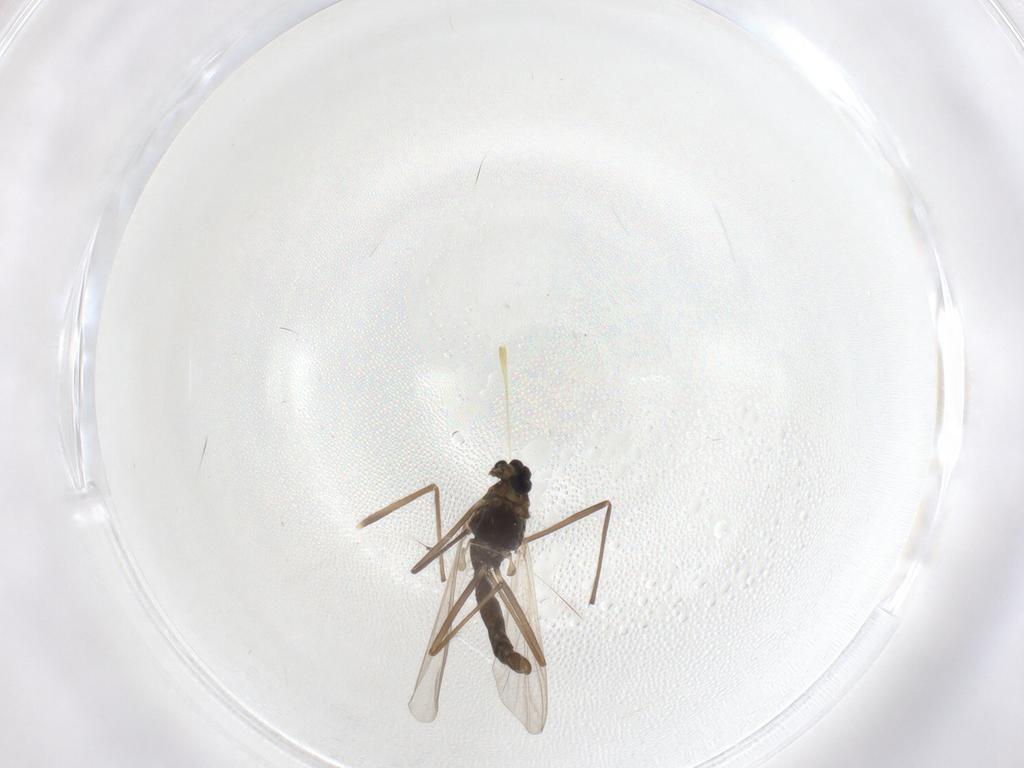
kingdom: Animalia
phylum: Arthropoda
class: Insecta
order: Diptera
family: Chironomidae
